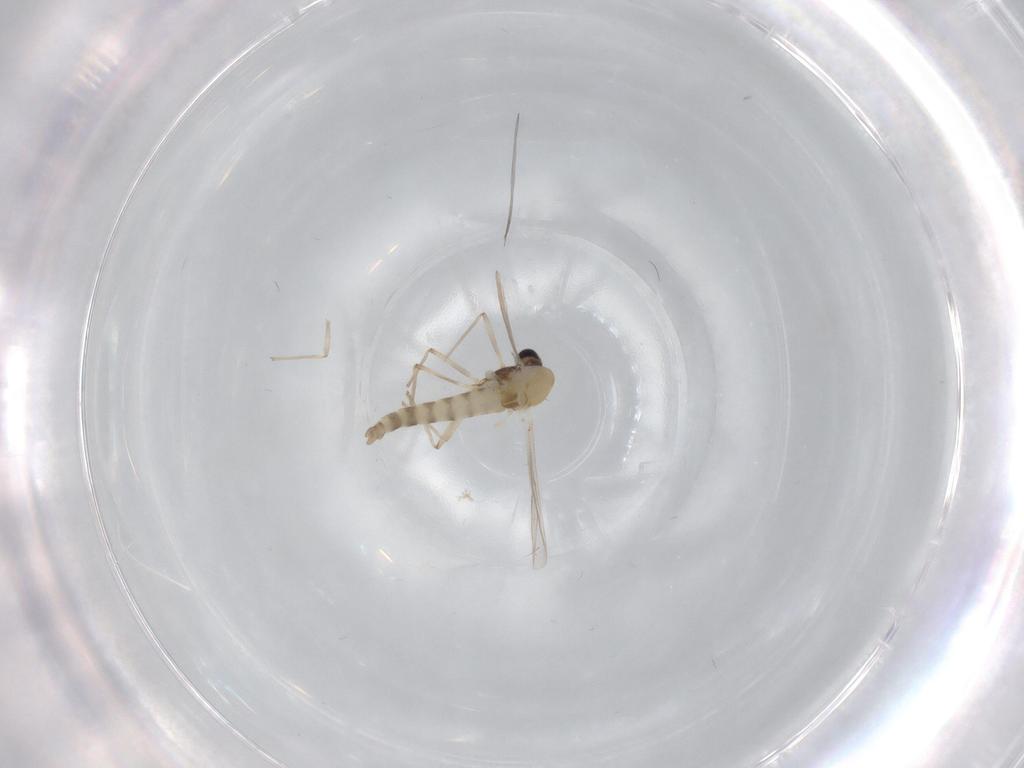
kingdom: Animalia
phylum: Arthropoda
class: Insecta
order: Diptera
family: Chironomidae
